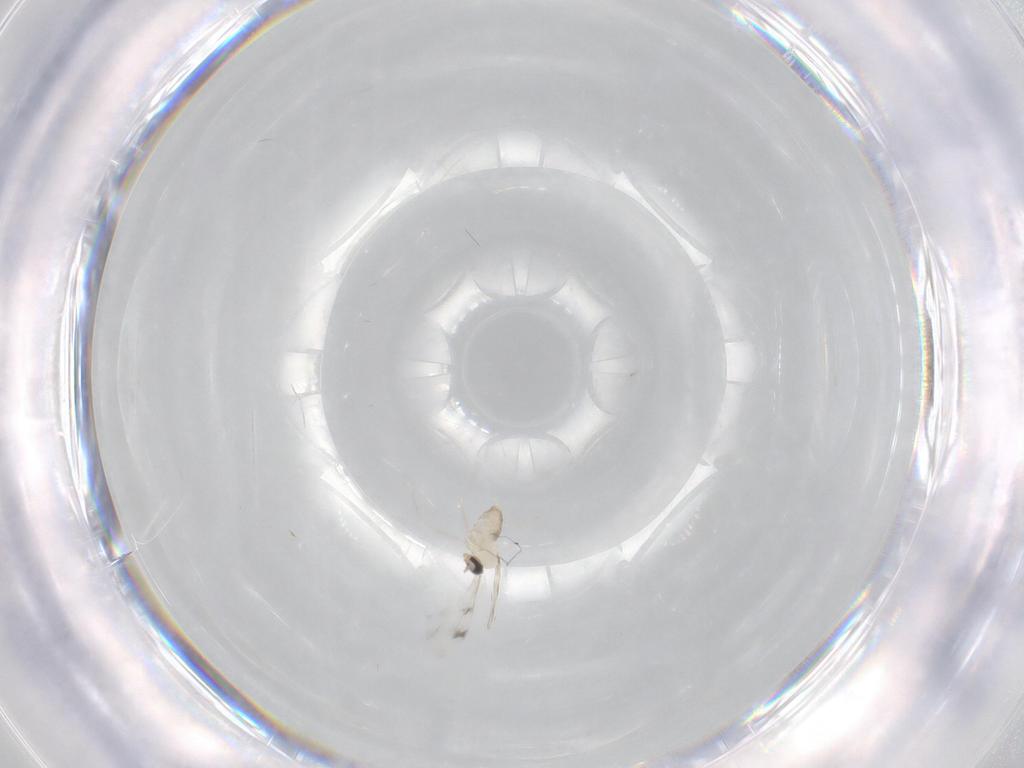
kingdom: Animalia
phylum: Arthropoda
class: Insecta
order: Diptera
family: Cecidomyiidae
